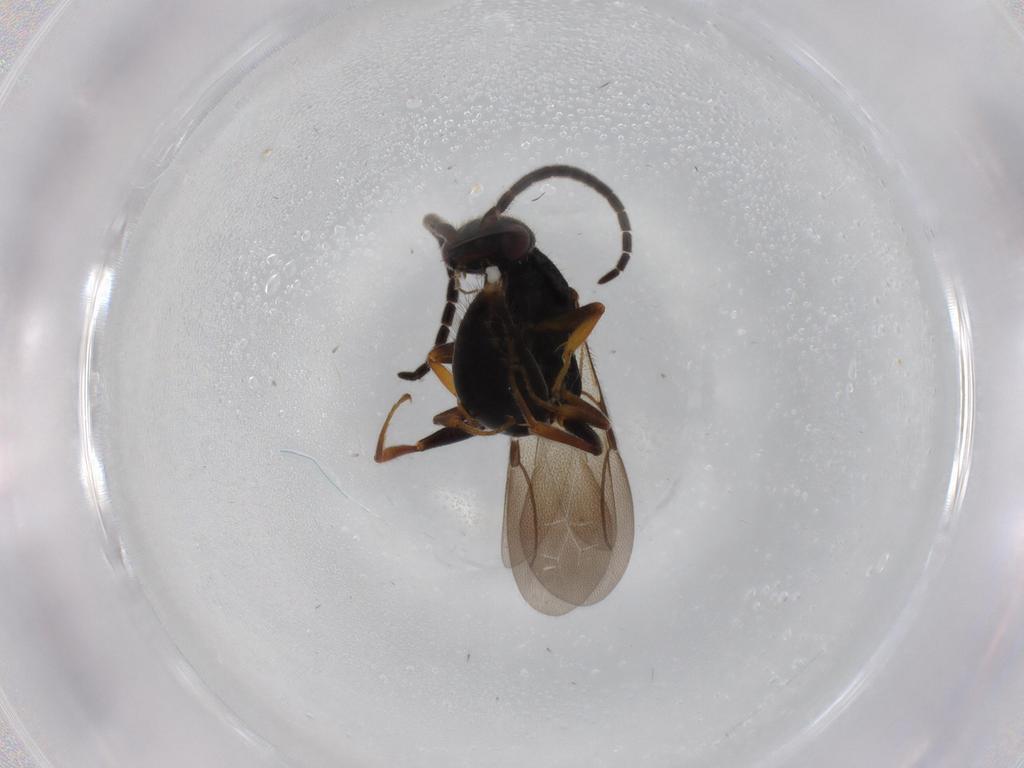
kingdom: Animalia
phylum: Arthropoda
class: Insecta
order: Hymenoptera
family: Bethylidae
